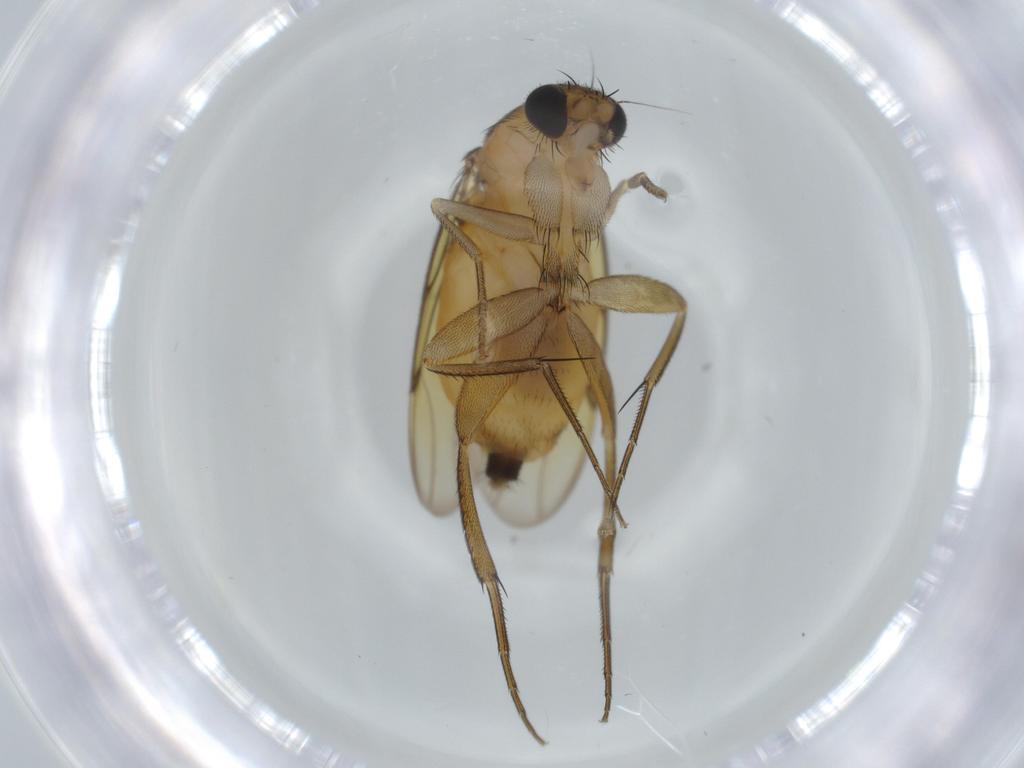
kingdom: Animalia
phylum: Arthropoda
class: Insecta
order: Diptera
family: Phoridae
